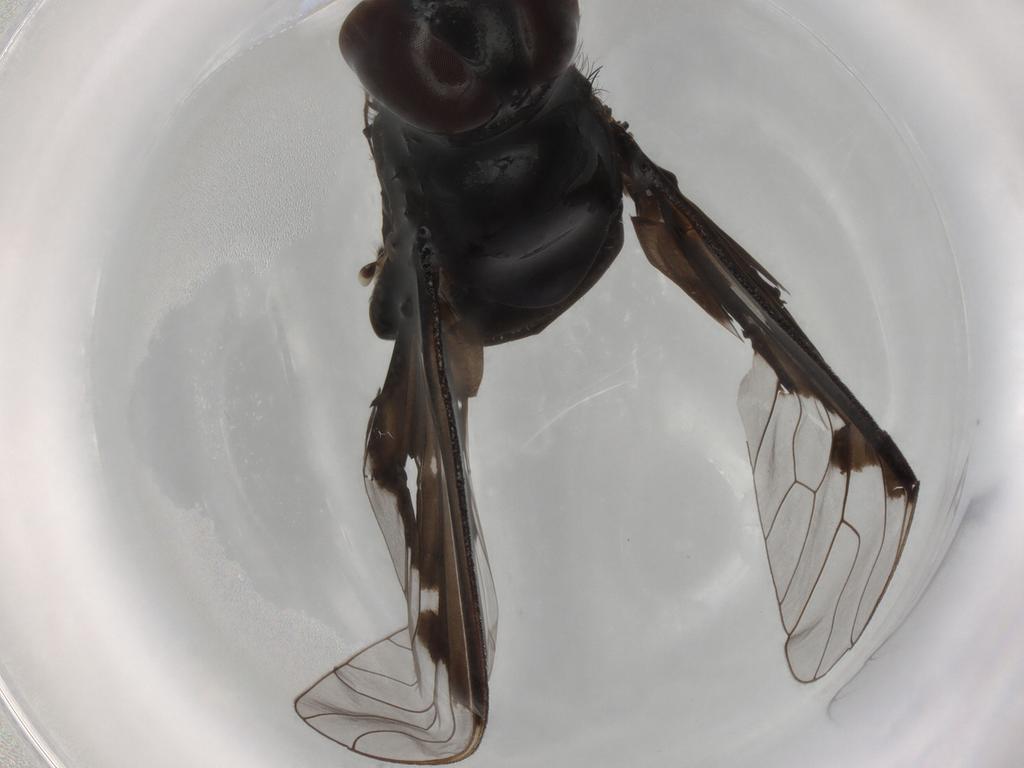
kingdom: Animalia
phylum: Arthropoda
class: Insecta
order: Diptera
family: Bombyliidae
